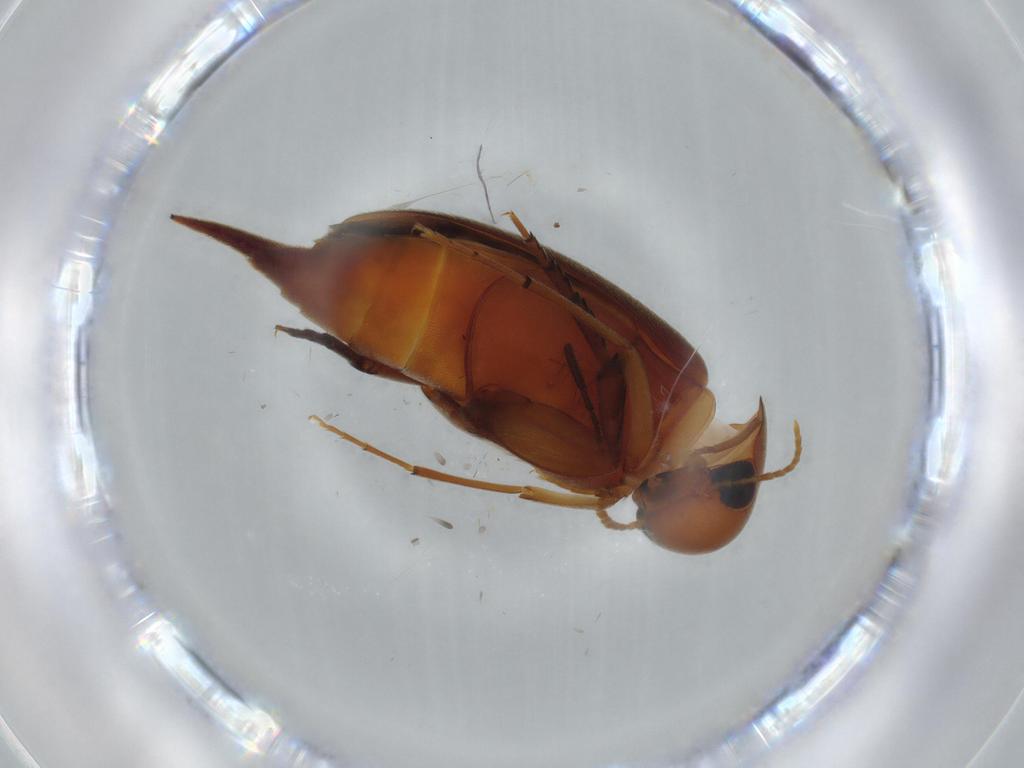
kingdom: Animalia
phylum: Arthropoda
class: Insecta
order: Coleoptera
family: Mordellidae
